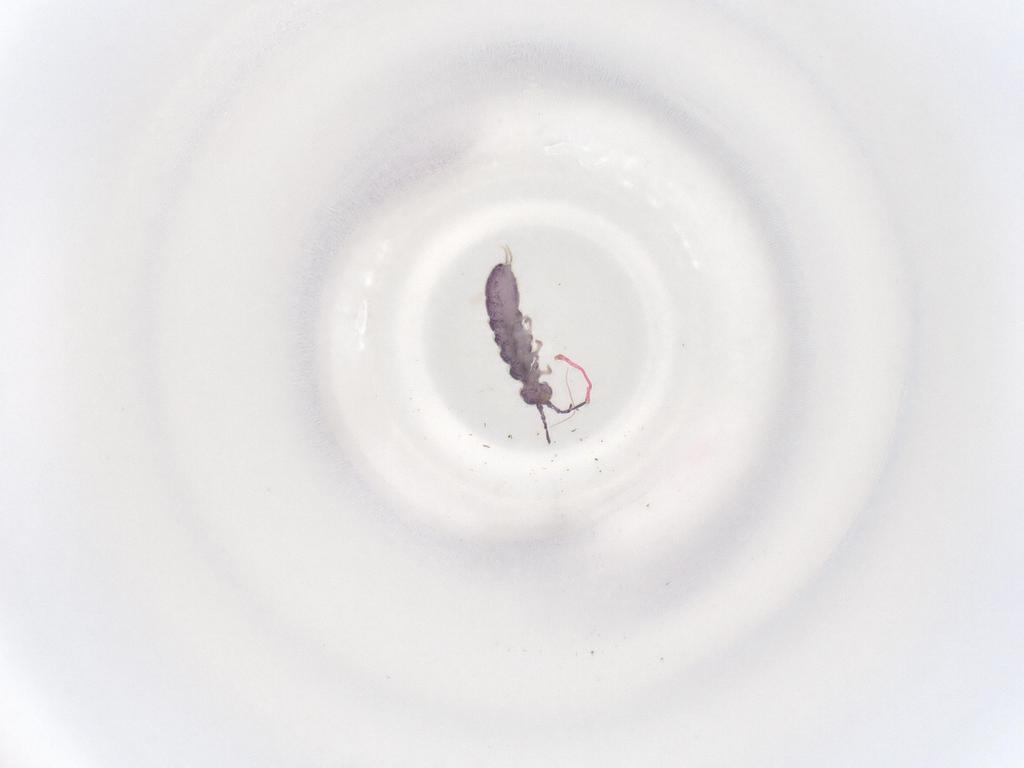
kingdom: Animalia
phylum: Arthropoda
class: Collembola
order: Entomobryomorpha
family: Isotomidae
